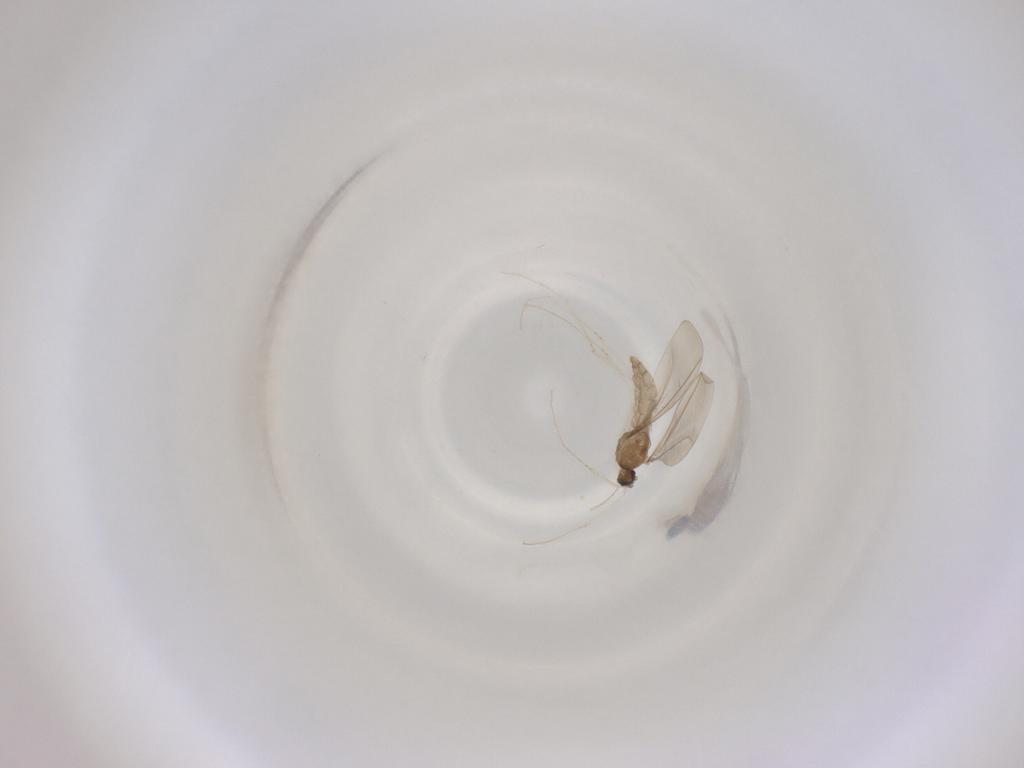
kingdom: Animalia
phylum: Arthropoda
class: Insecta
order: Diptera
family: Cecidomyiidae
